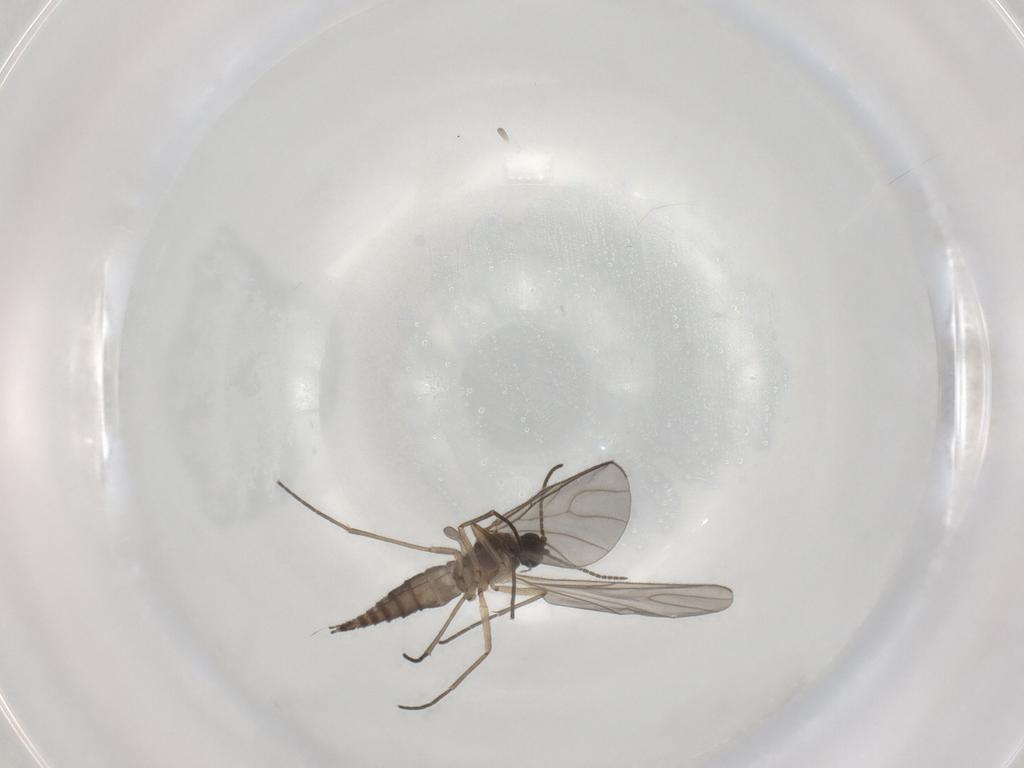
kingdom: Animalia
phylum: Arthropoda
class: Insecta
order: Diptera
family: Sciaridae
